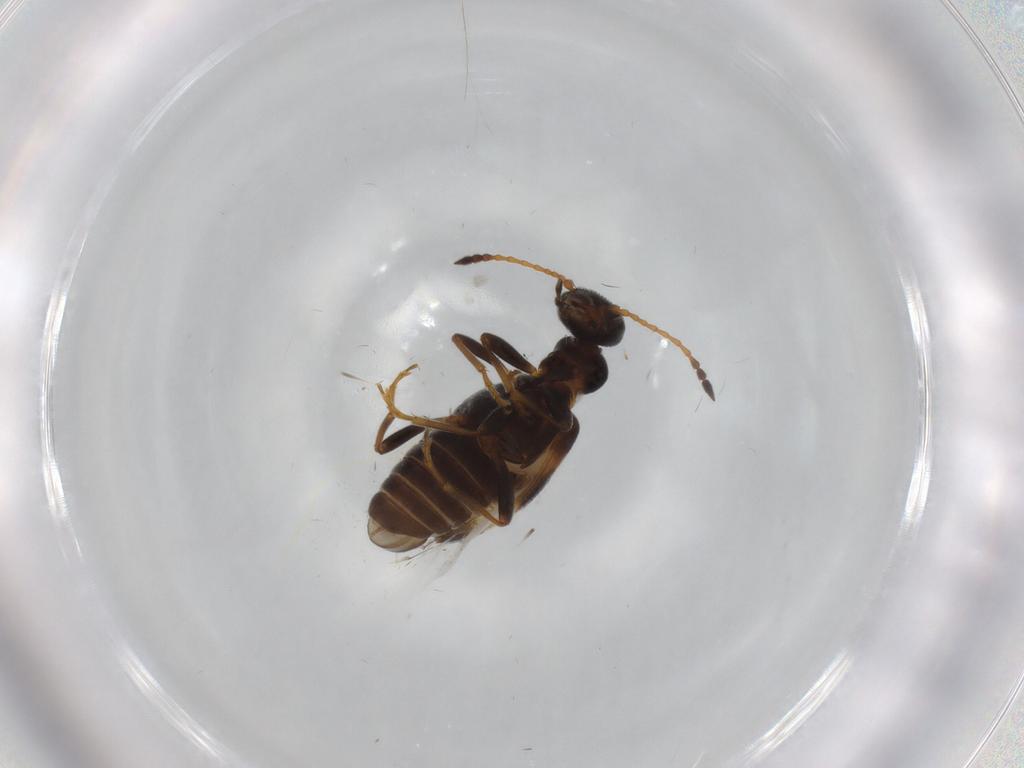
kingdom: Animalia
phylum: Arthropoda
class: Insecta
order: Coleoptera
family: Anthicidae
